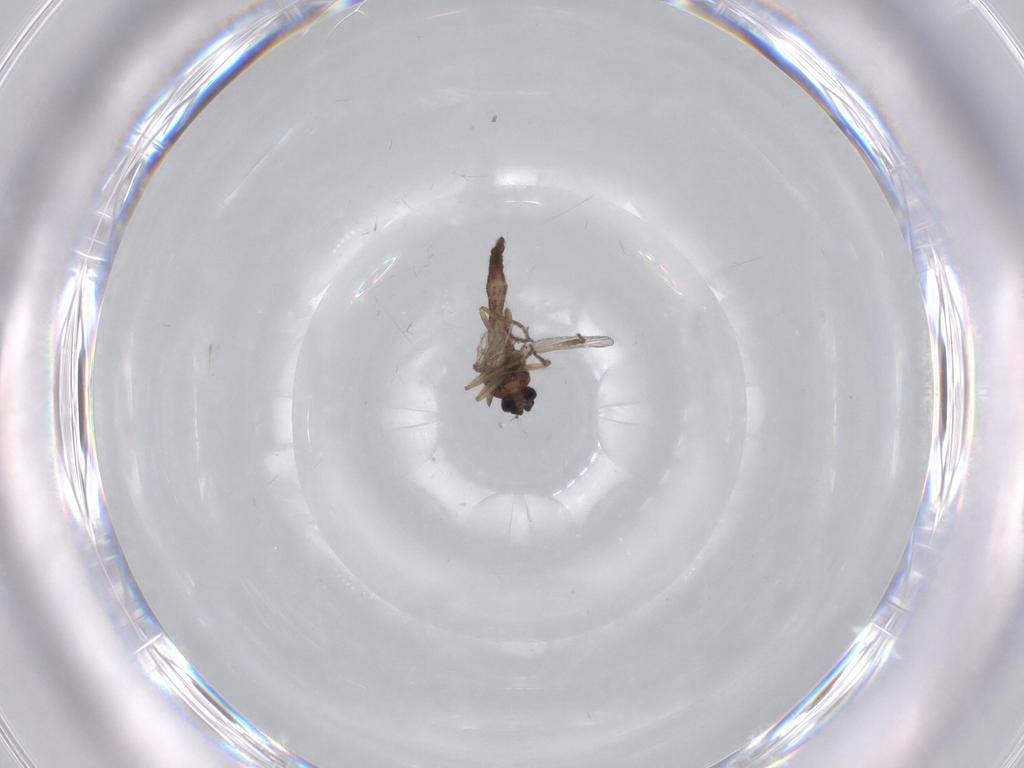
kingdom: Animalia
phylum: Arthropoda
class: Insecta
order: Diptera
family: Ceratopogonidae
